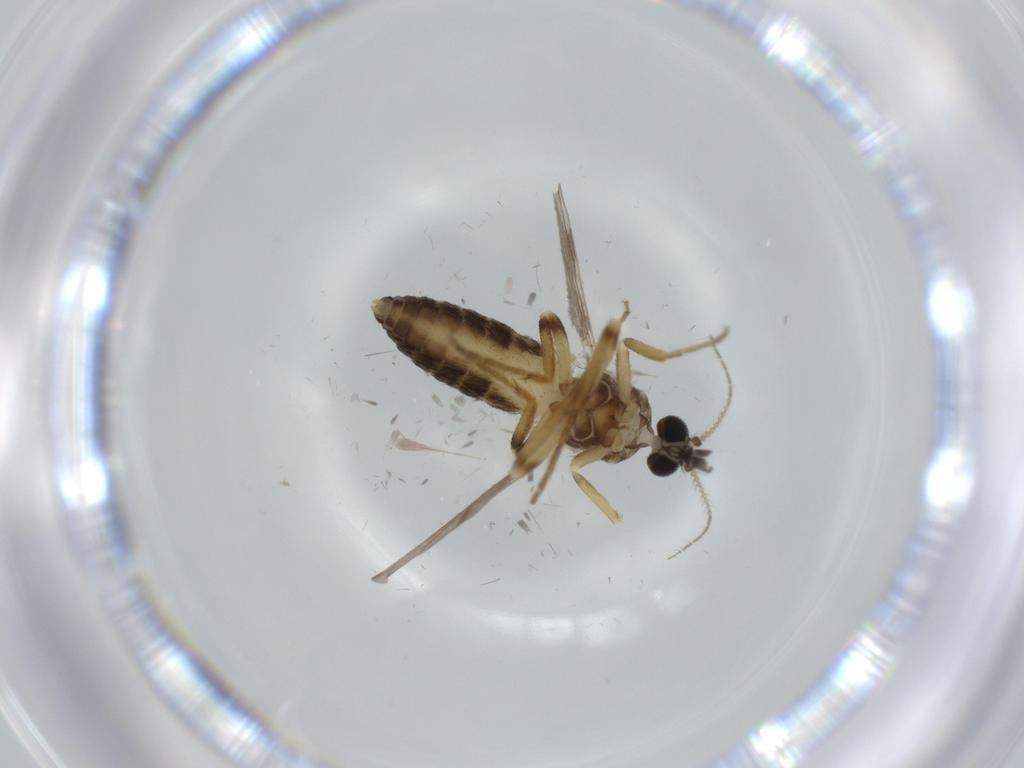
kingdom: Animalia
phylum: Arthropoda
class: Insecta
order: Diptera
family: Ceratopogonidae
